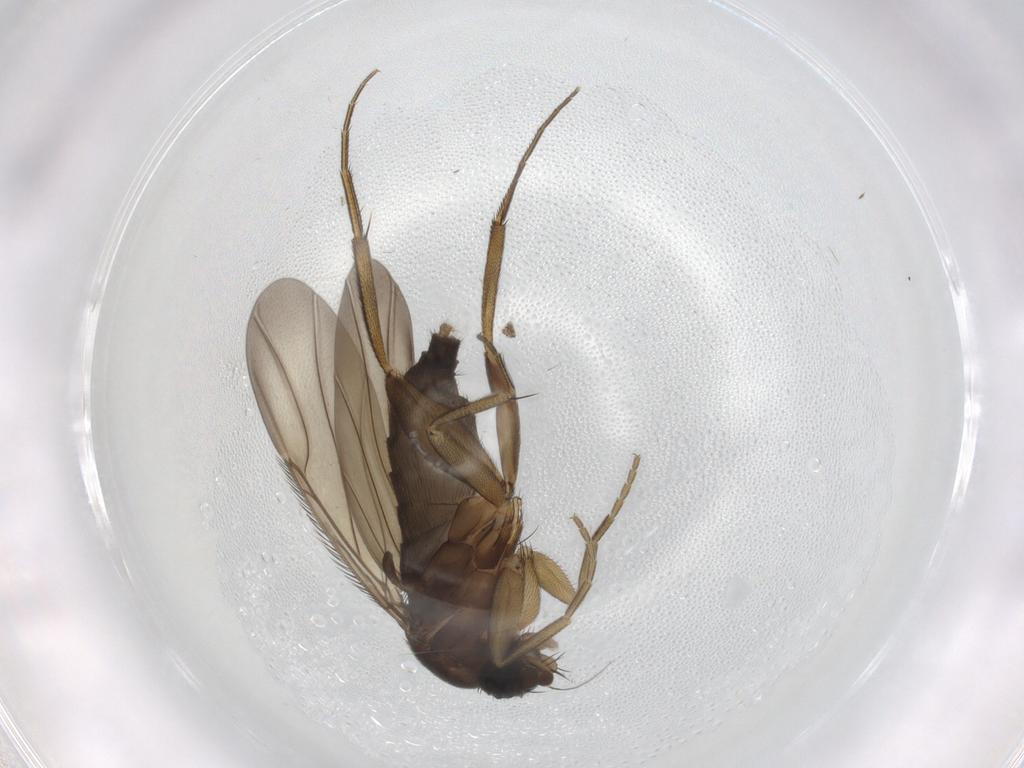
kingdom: Animalia
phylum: Arthropoda
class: Insecta
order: Diptera
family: Phoridae
